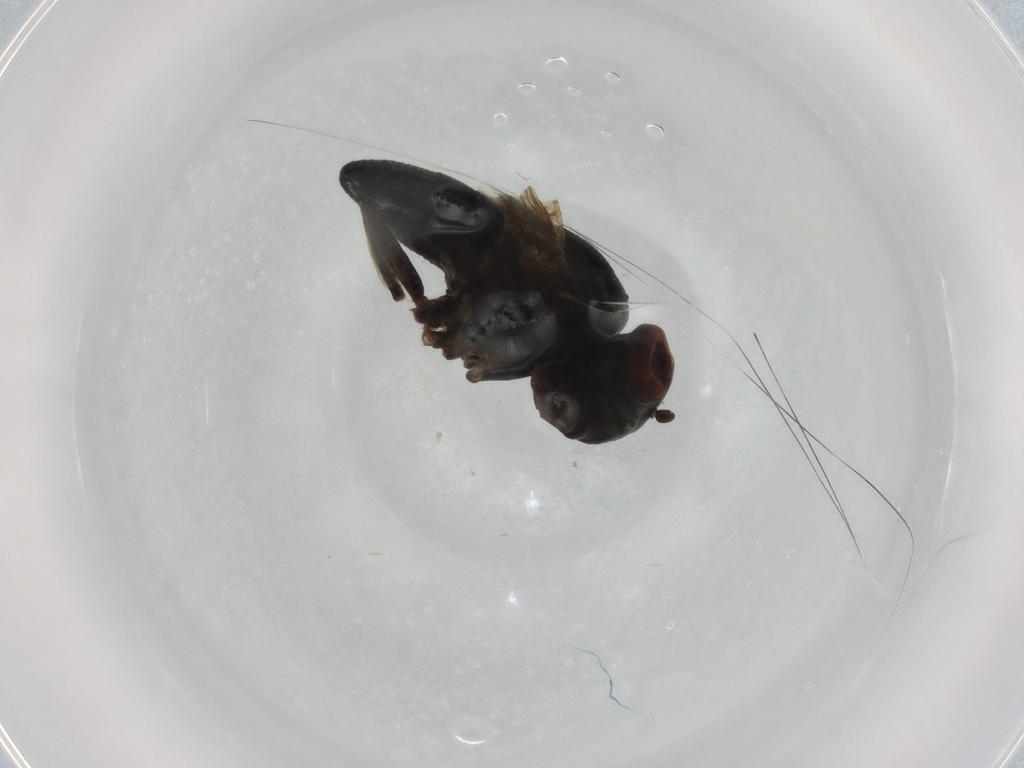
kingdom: Animalia
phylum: Arthropoda
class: Insecta
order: Diptera
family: Ephydridae
